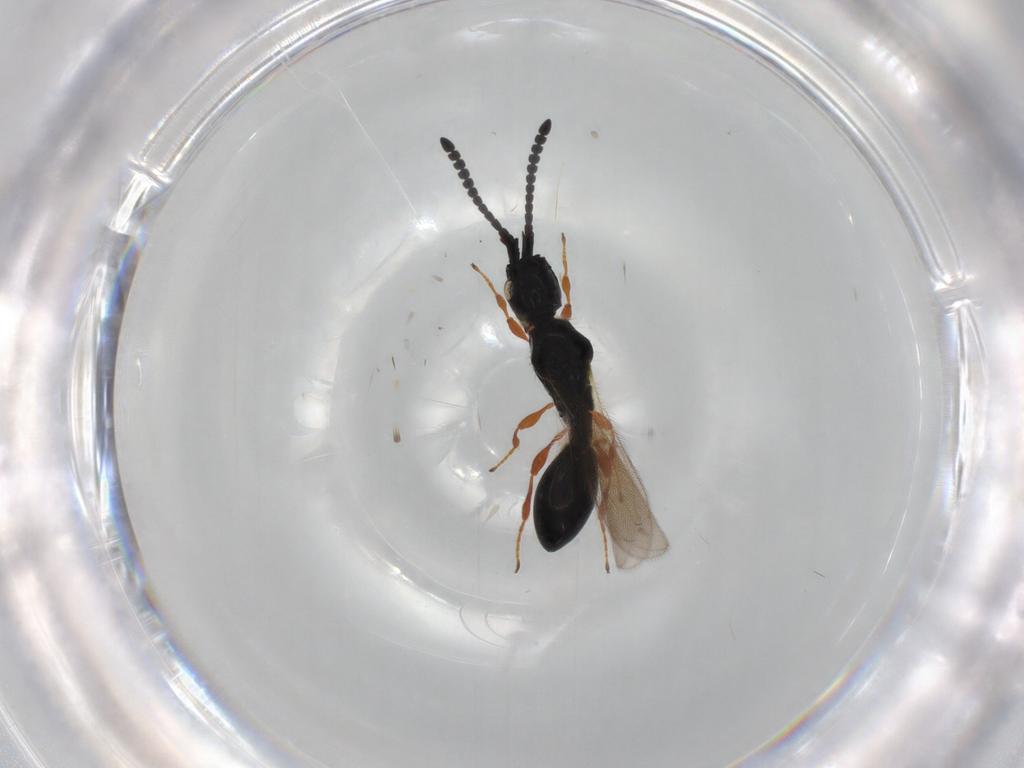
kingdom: Animalia
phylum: Arthropoda
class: Insecta
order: Hymenoptera
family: Diapriidae
